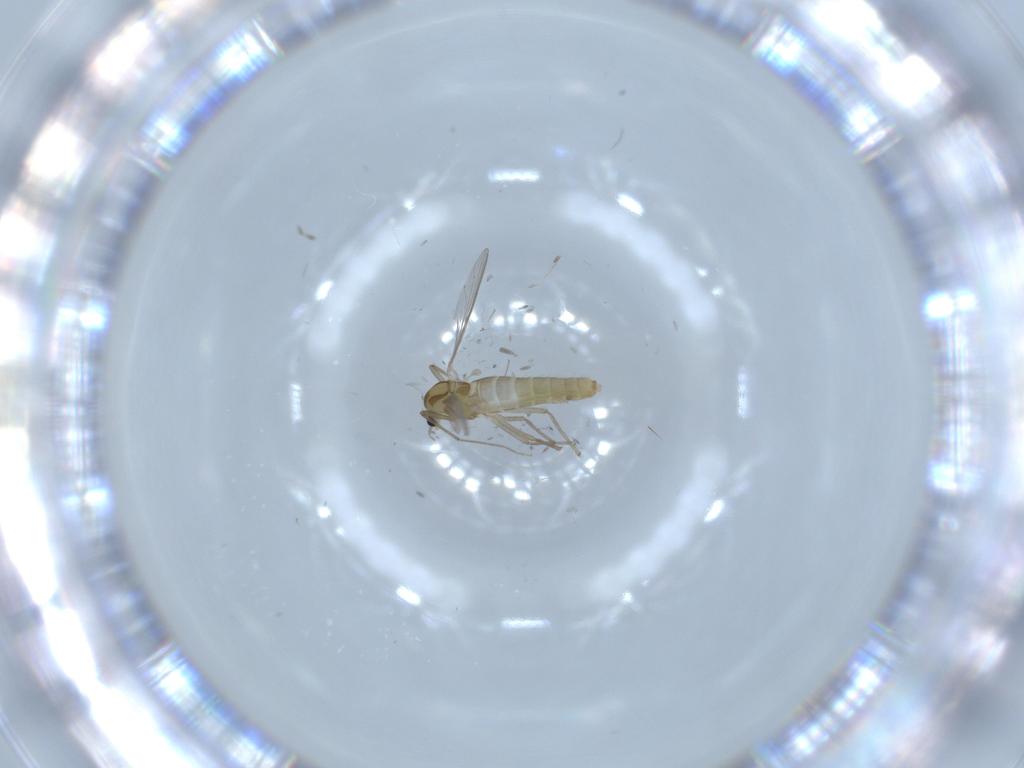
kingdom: Animalia
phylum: Arthropoda
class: Insecta
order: Diptera
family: Chironomidae
